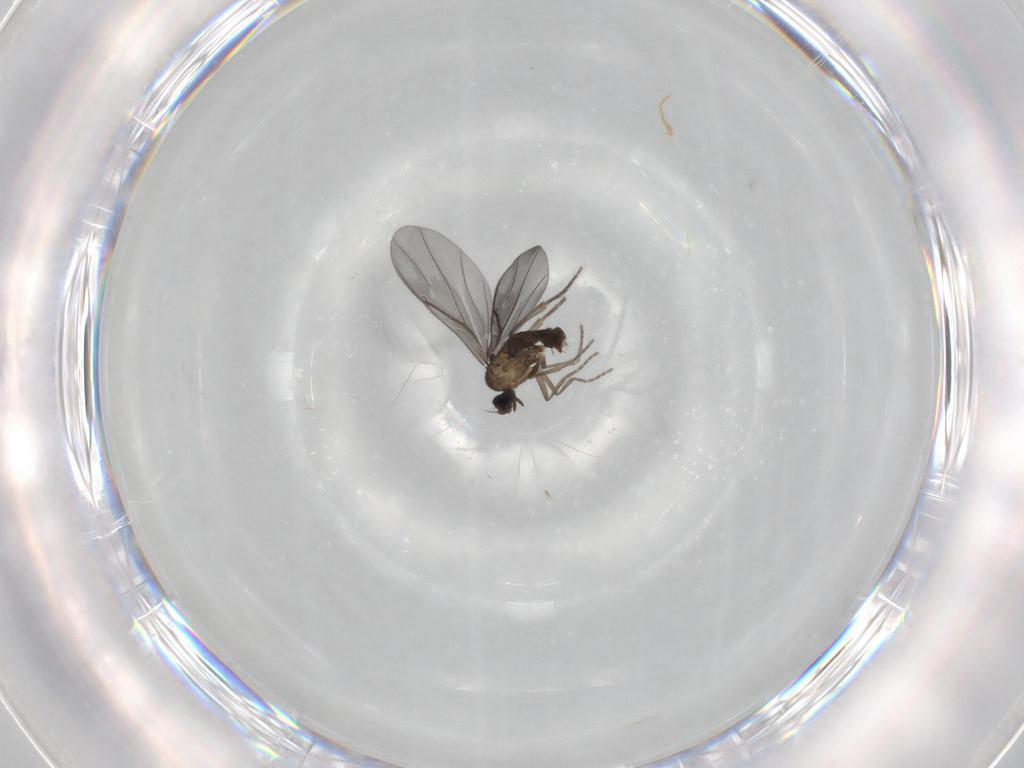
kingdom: Animalia
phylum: Arthropoda
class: Insecta
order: Diptera
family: Phoridae
